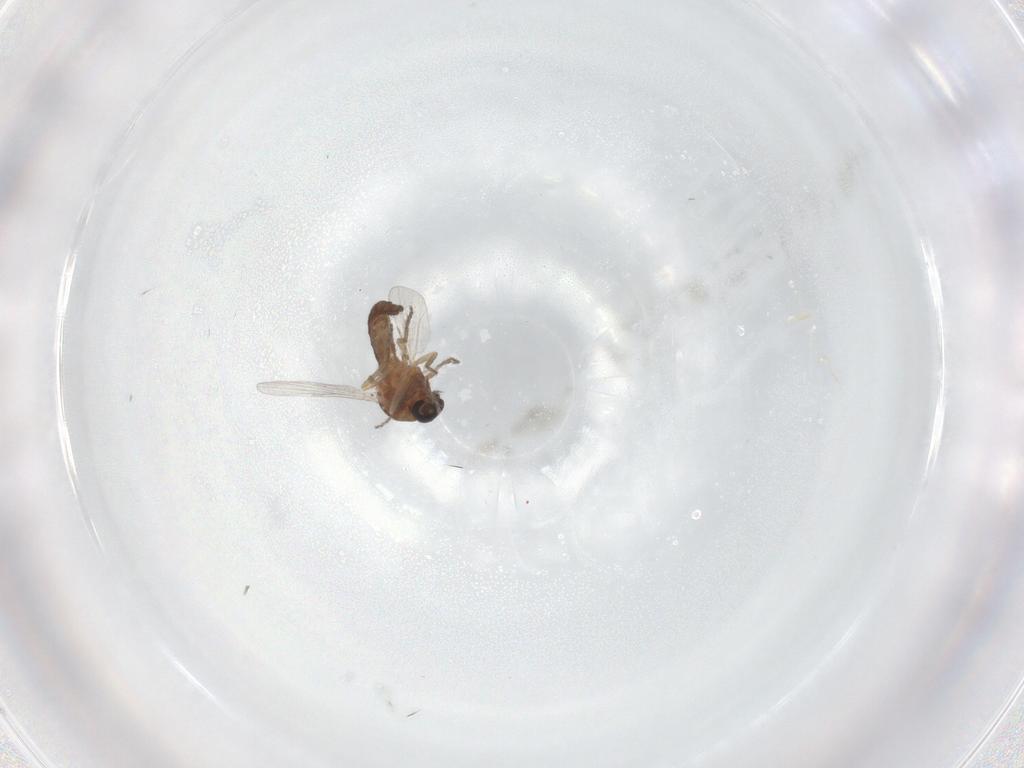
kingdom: Animalia
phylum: Arthropoda
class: Insecta
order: Diptera
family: Ceratopogonidae
